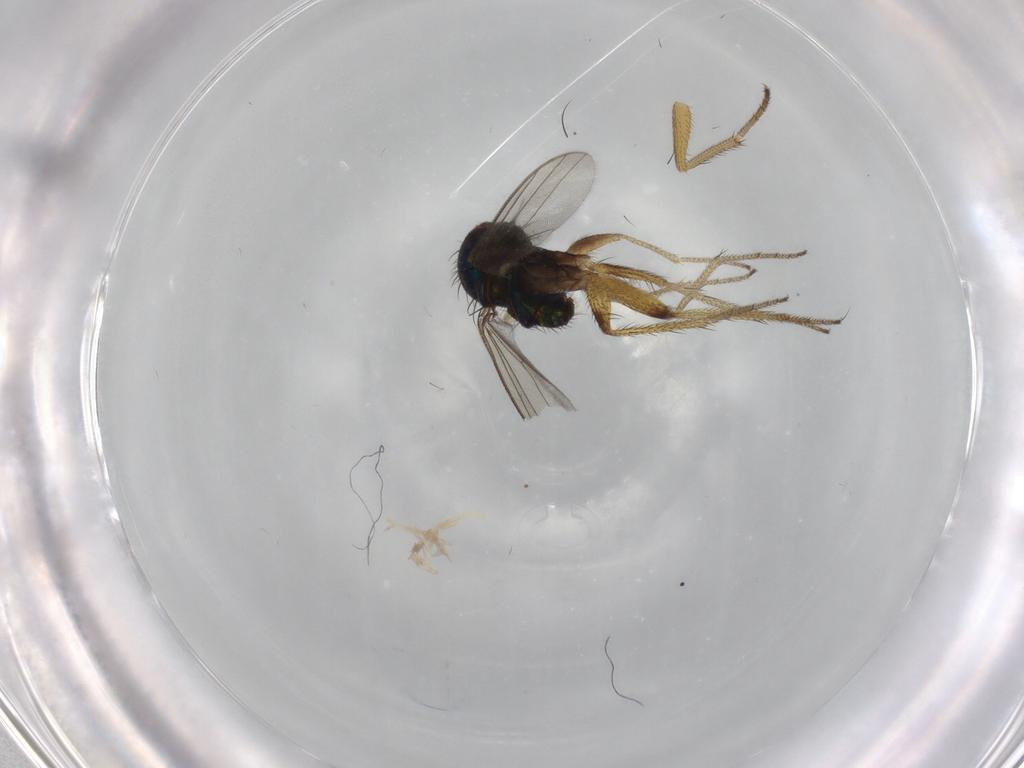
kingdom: Animalia
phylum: Arthropoda
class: Insecta
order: Diptera
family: Dolichopodidae
